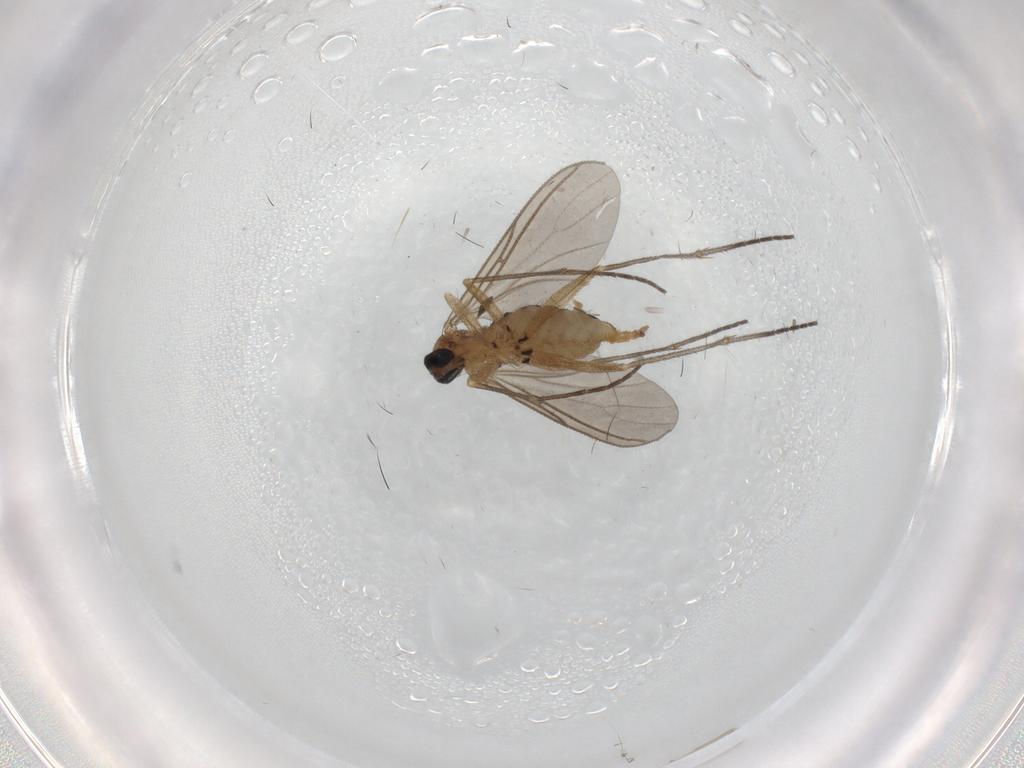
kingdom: Animalia
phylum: Arthropoda
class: Insecta
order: Diptera
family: Sciaridae
